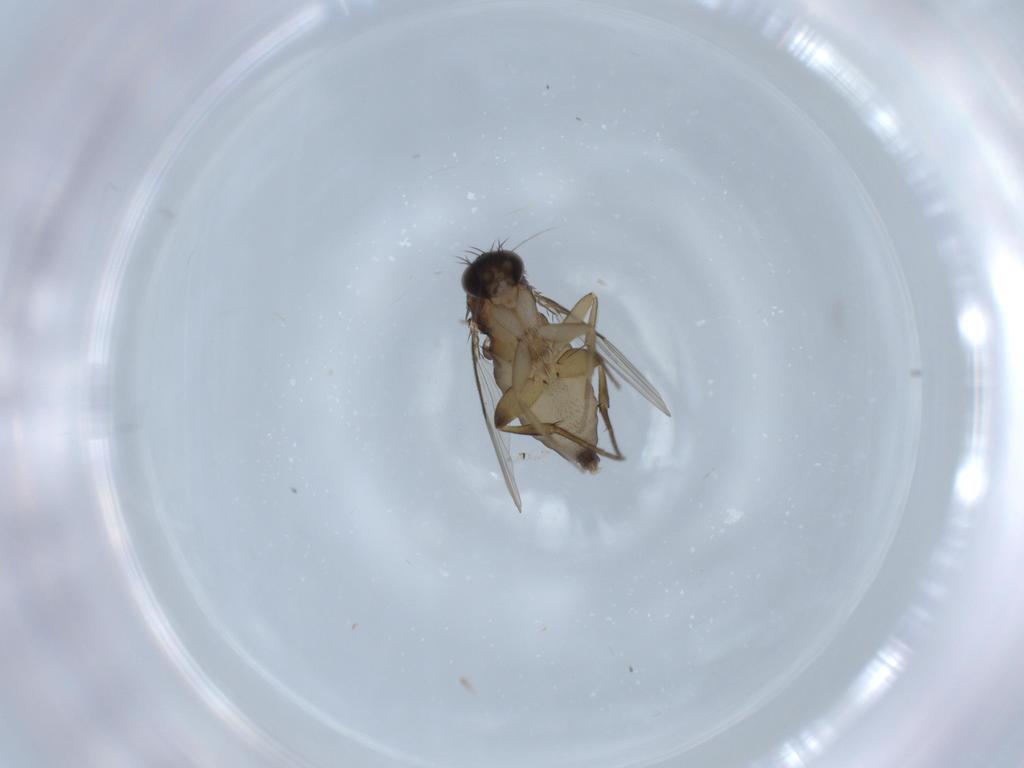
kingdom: Animalia
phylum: Arthropoda
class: Insecta
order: Diptera
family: Phoridae
